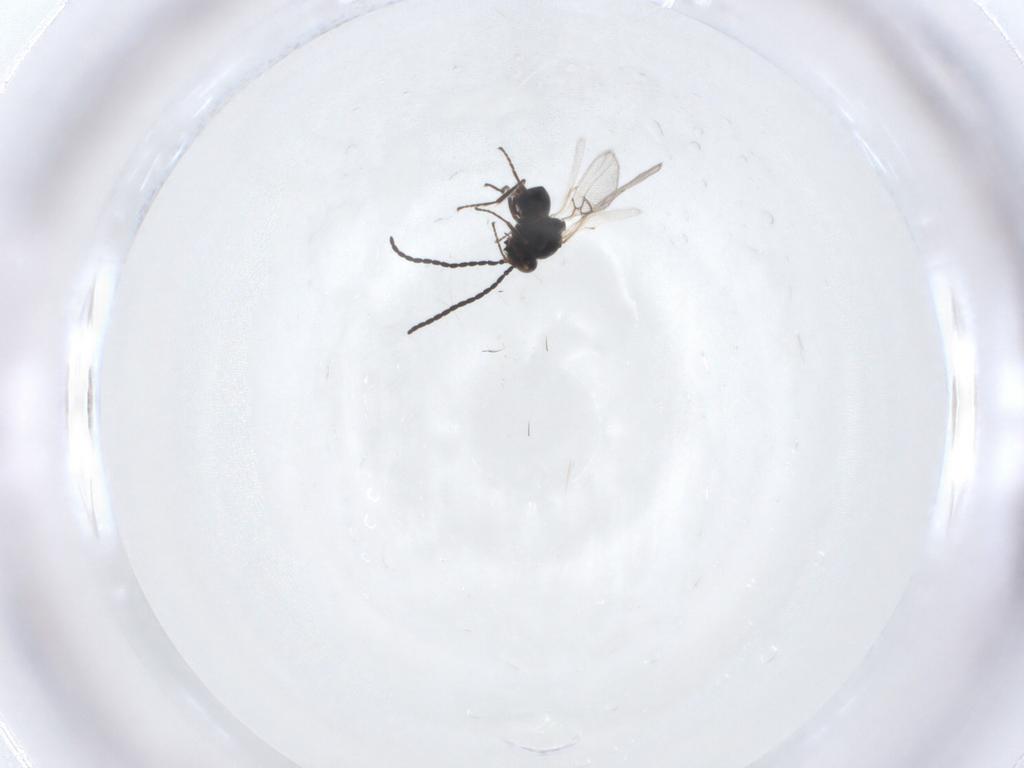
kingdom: Animalia
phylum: Arthropoda
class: Insecta
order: Hymenoptera
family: Figitidae
